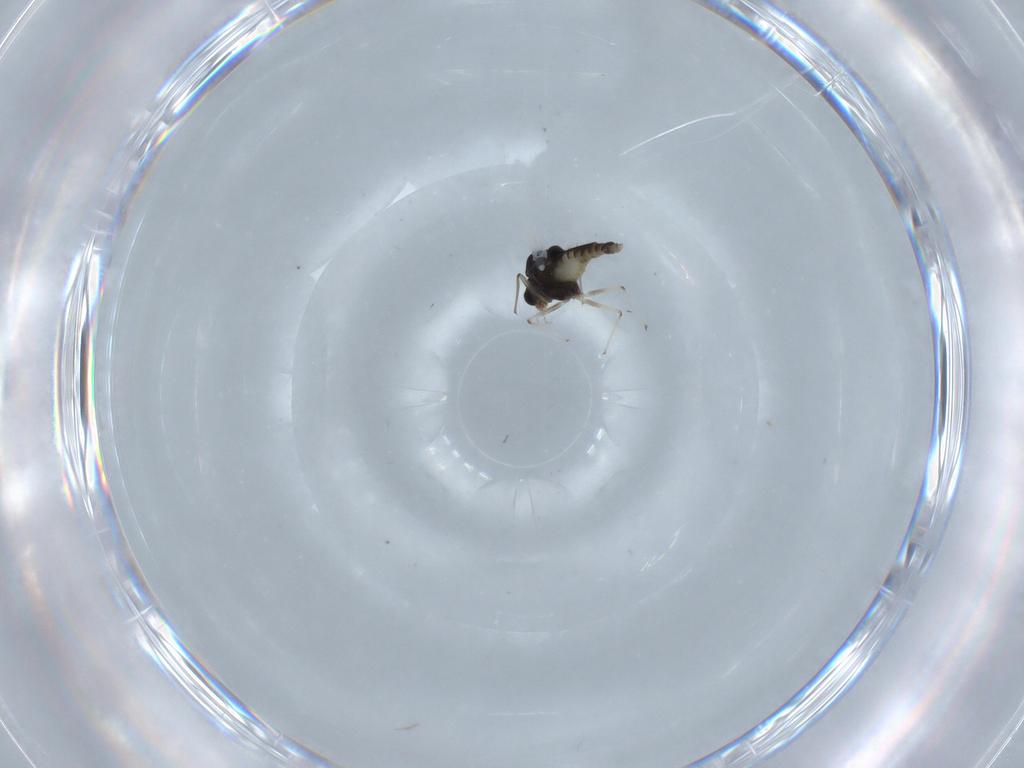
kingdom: Animalia
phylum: Arthropoda
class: Insecta
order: Diptera
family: Chironomidae
